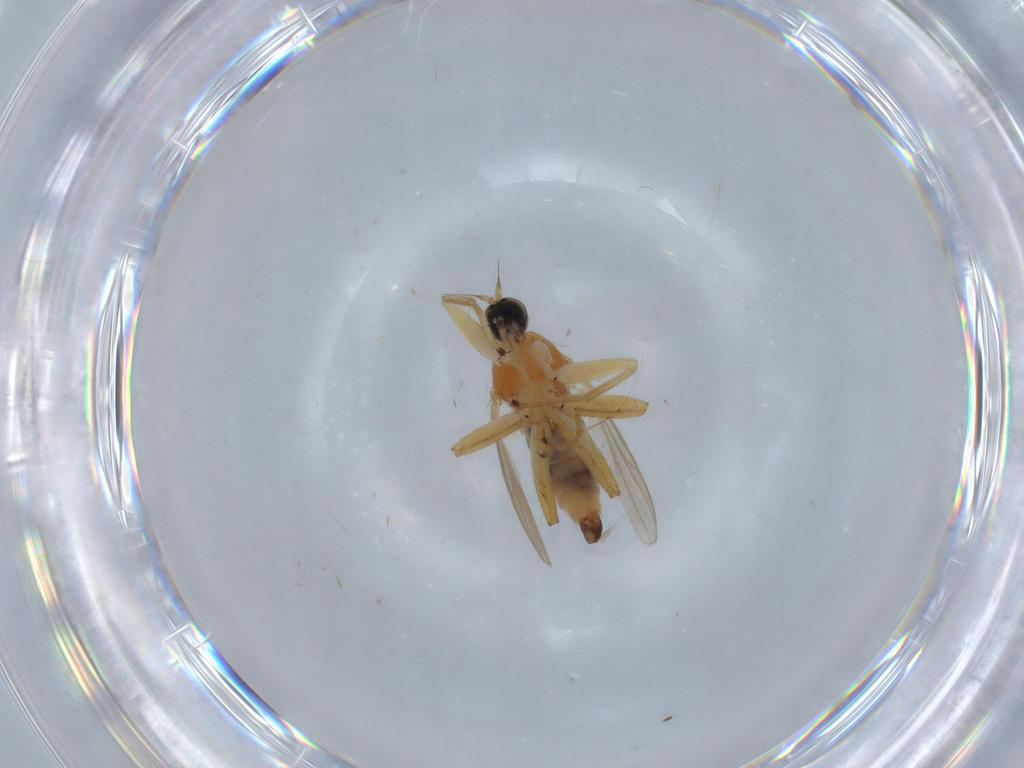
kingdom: Animalia
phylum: Arthropoda
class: Insecta
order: Diptera
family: Hybotidae
